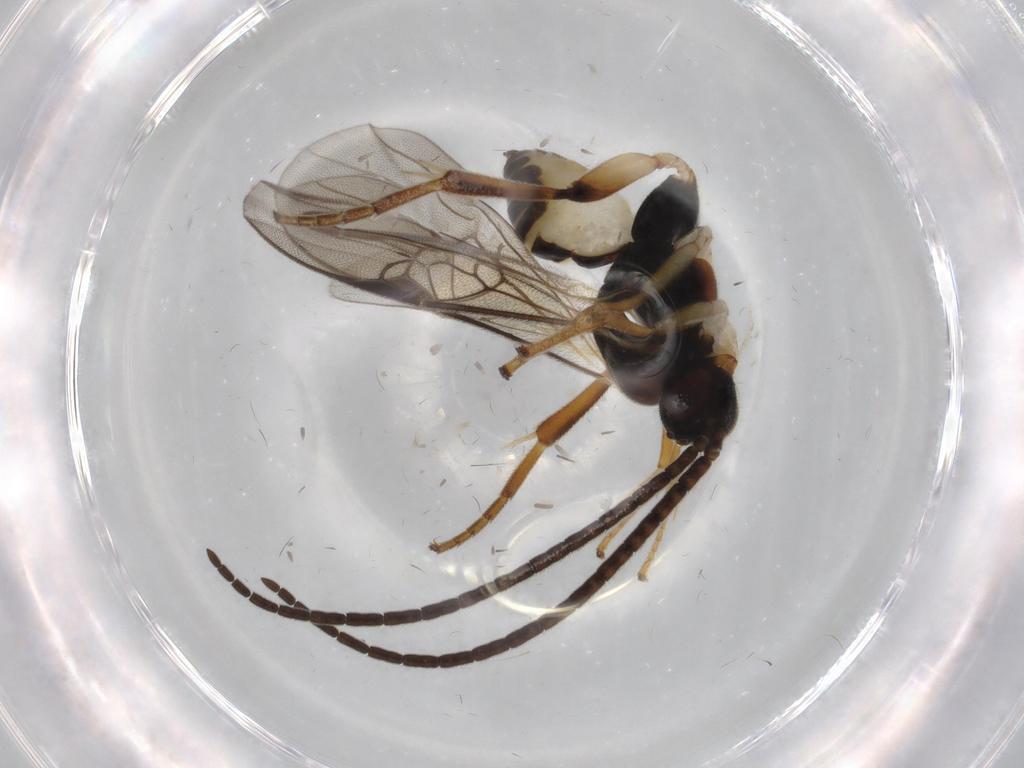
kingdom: Animalia
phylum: Arthropoda
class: Insecta
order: Hymenoptera
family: Braconidae
